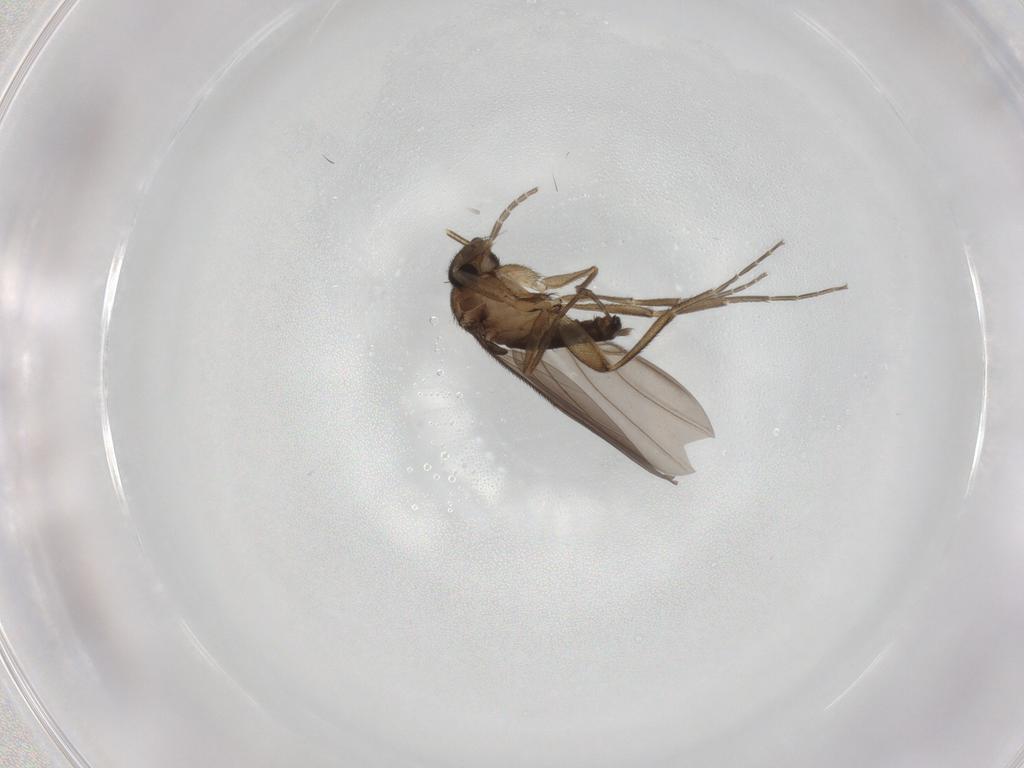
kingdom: Animalia
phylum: Arthropoda
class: Insecta
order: Diptera
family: Phoridae
